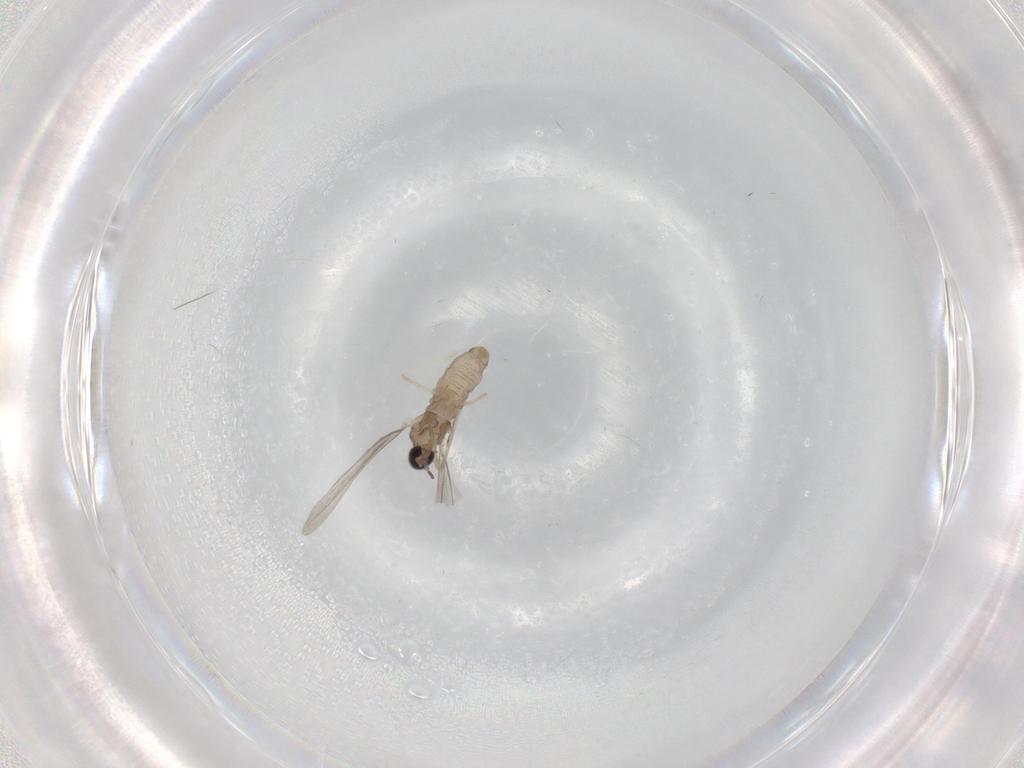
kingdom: Animalia
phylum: Arthropoda
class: Insecta
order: Diptera
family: Cecidomyiidae
